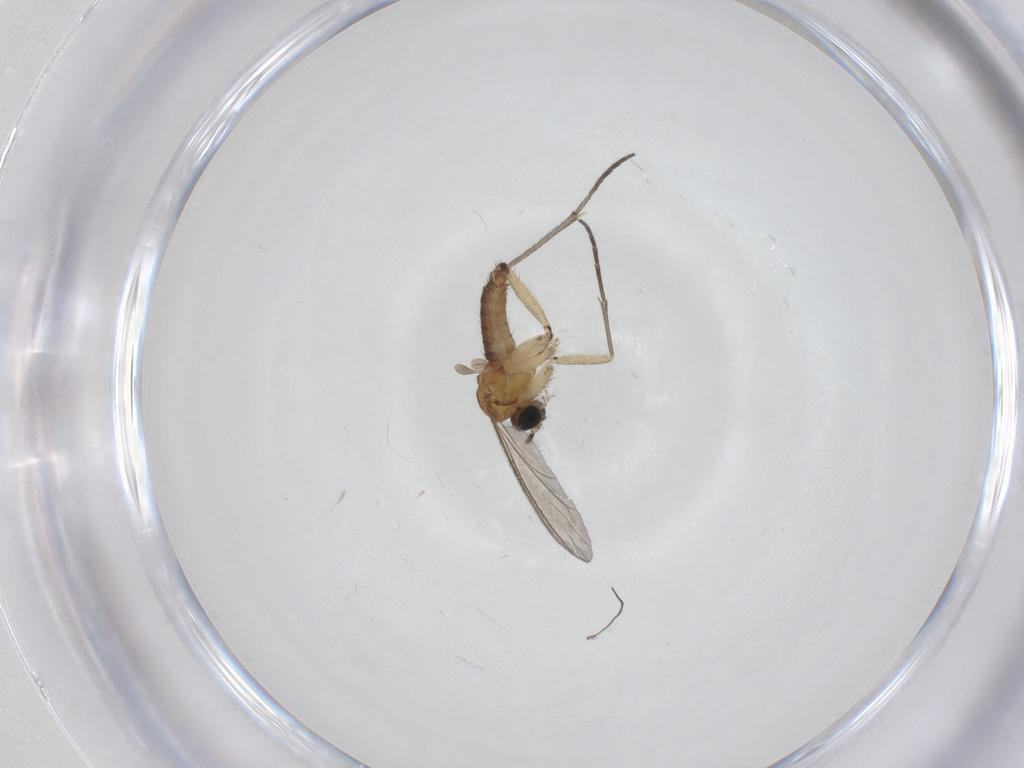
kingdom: Animalia
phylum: Arthropoda
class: Insecta
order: Diptera
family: Sciaridae
